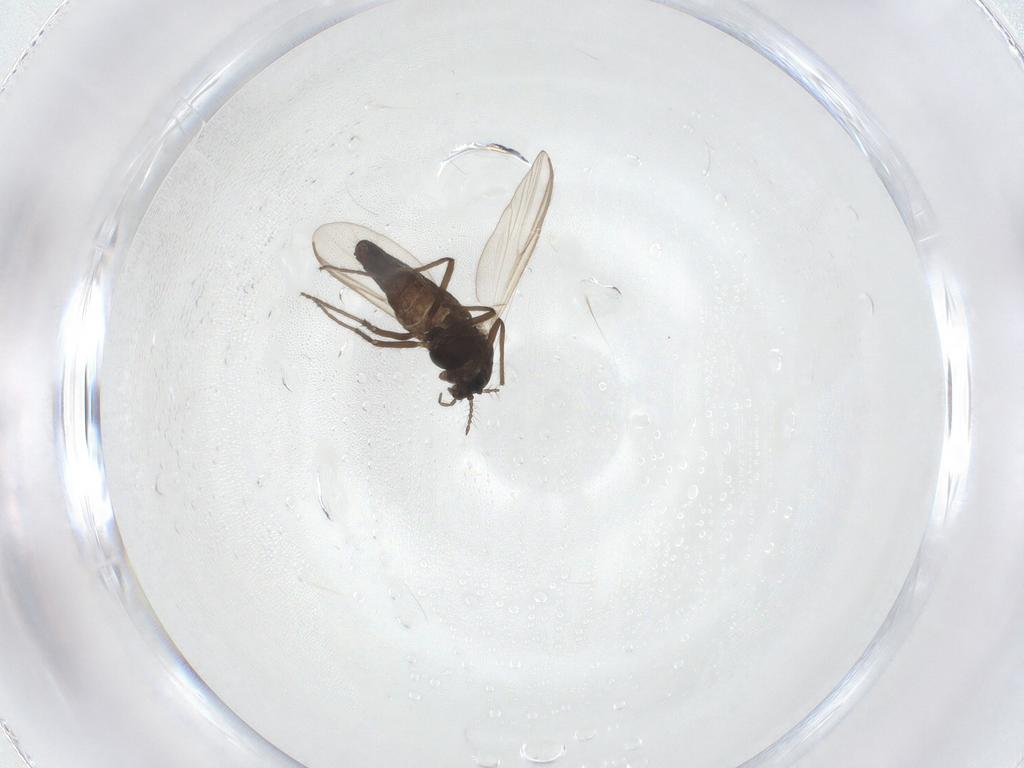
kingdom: Animalia
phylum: Arthropoda
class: Insecta
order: Diptera
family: Chironomidae
